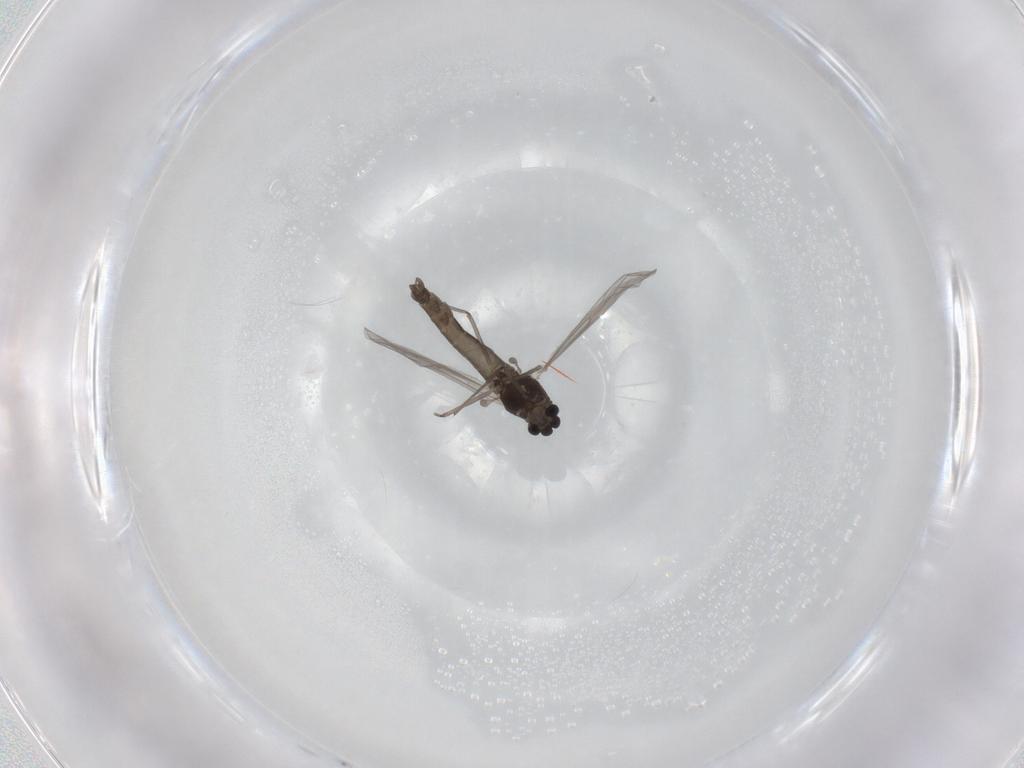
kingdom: Animalia
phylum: Arthropoda
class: Insecta
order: Diptera
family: Chironomidae
